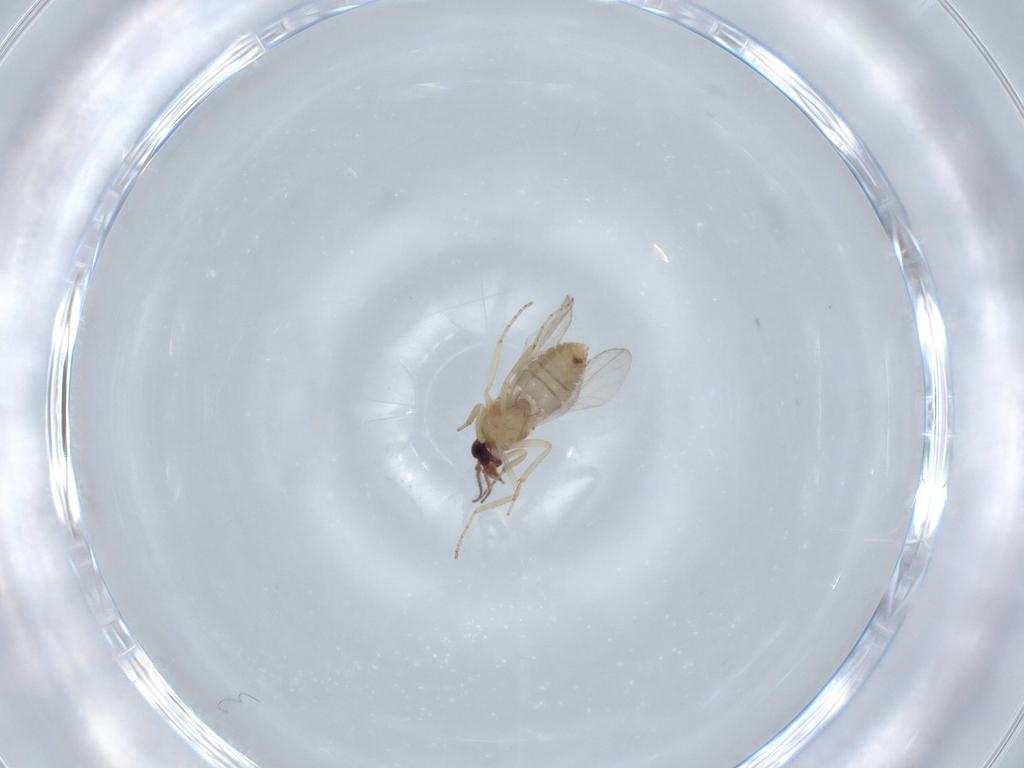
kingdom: Animalia
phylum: Arthropoda
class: Insecta
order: Diptera
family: Ceratopogonidae
